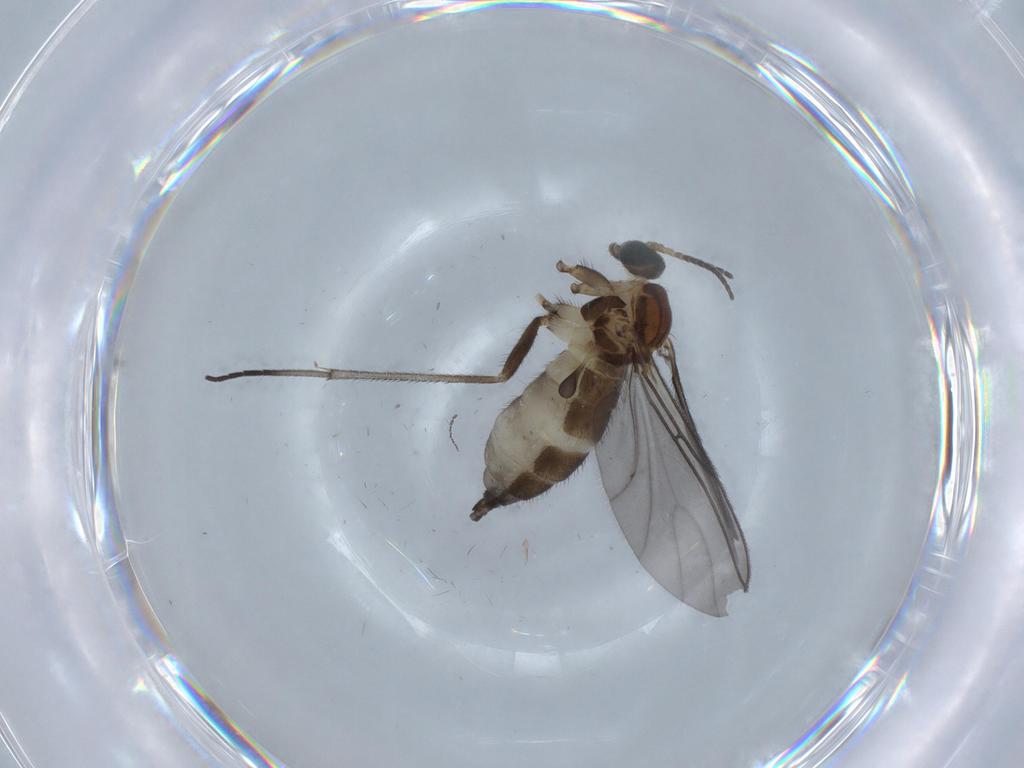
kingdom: Animalia
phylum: Arthropoda
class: Insecta
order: Diptera
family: Sciaridae
